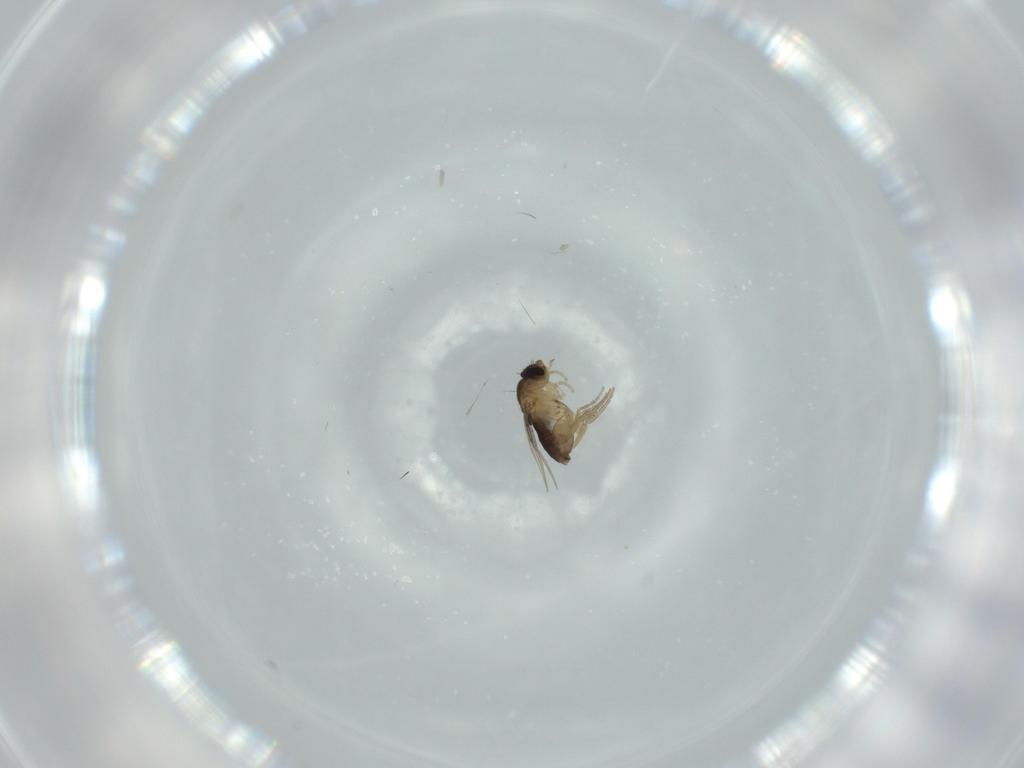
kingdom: Animalia
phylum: Arthropoda
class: Insecta
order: Diptera
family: Phoridae
